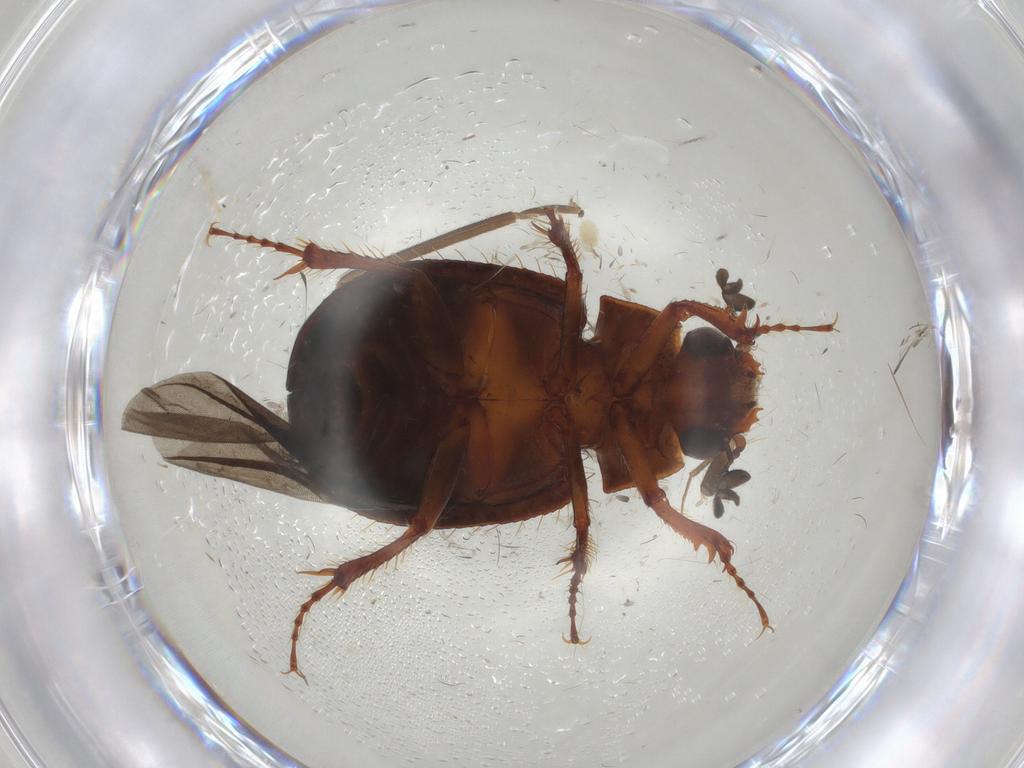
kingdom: Animalia
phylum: Arthropoda
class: Insecta
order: Coleoptera
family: Hybosoridae
